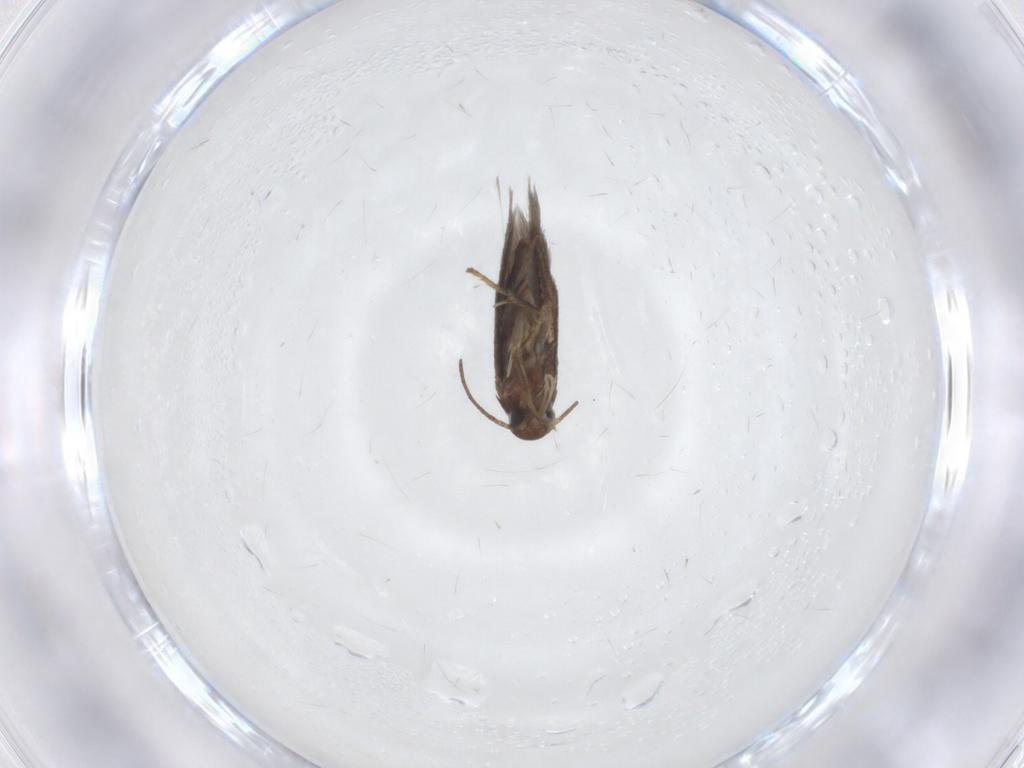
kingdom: Animalia
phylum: Arthropoda
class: Insecta
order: Lepidoptera
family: Heliozelidae
